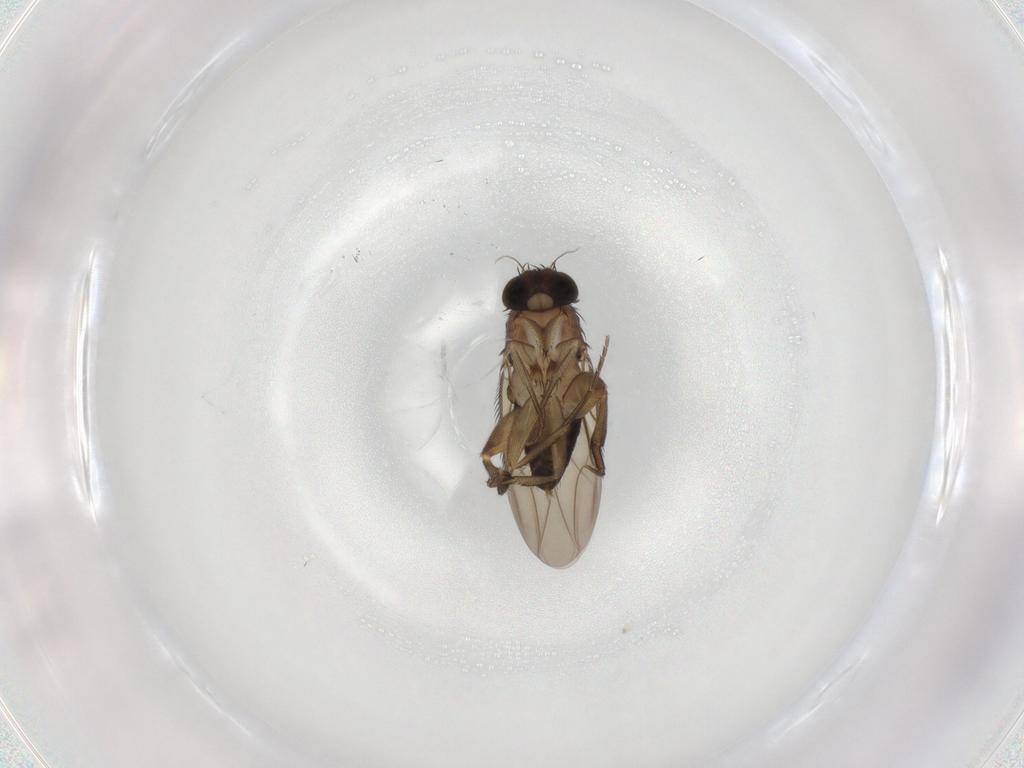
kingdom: Animalia
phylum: Arthropoda
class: Insecta
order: Diptera
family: Phoridae
